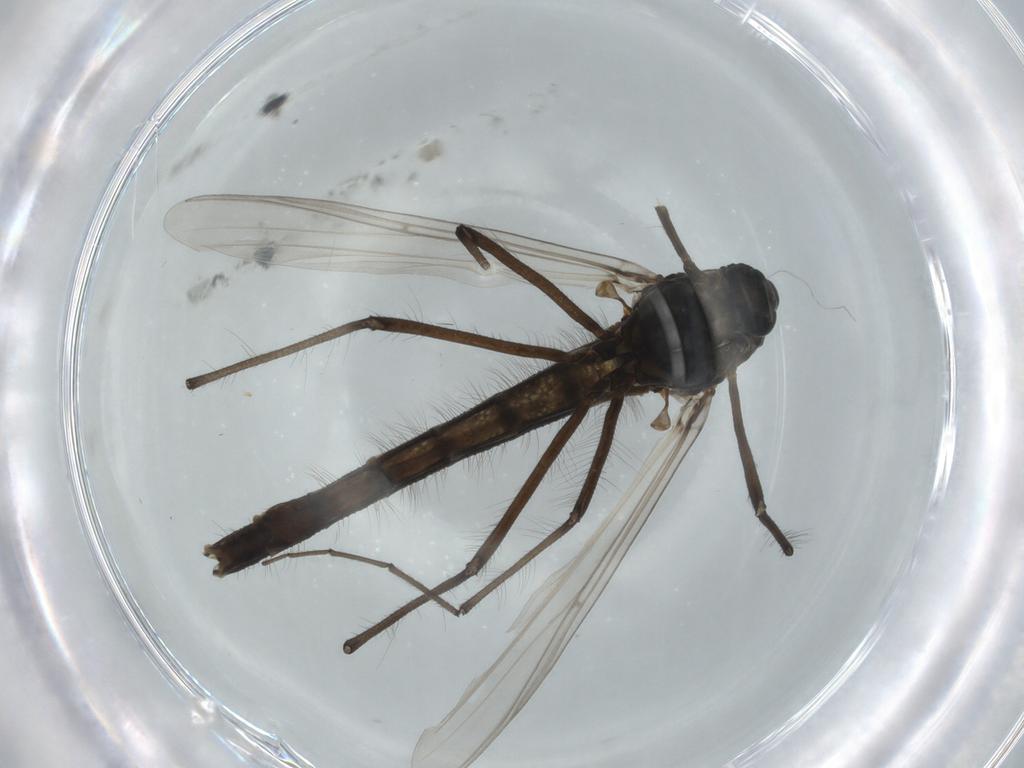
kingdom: Animalia
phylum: Arthropoda
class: Insecta
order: Diptera
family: Chironomidae
